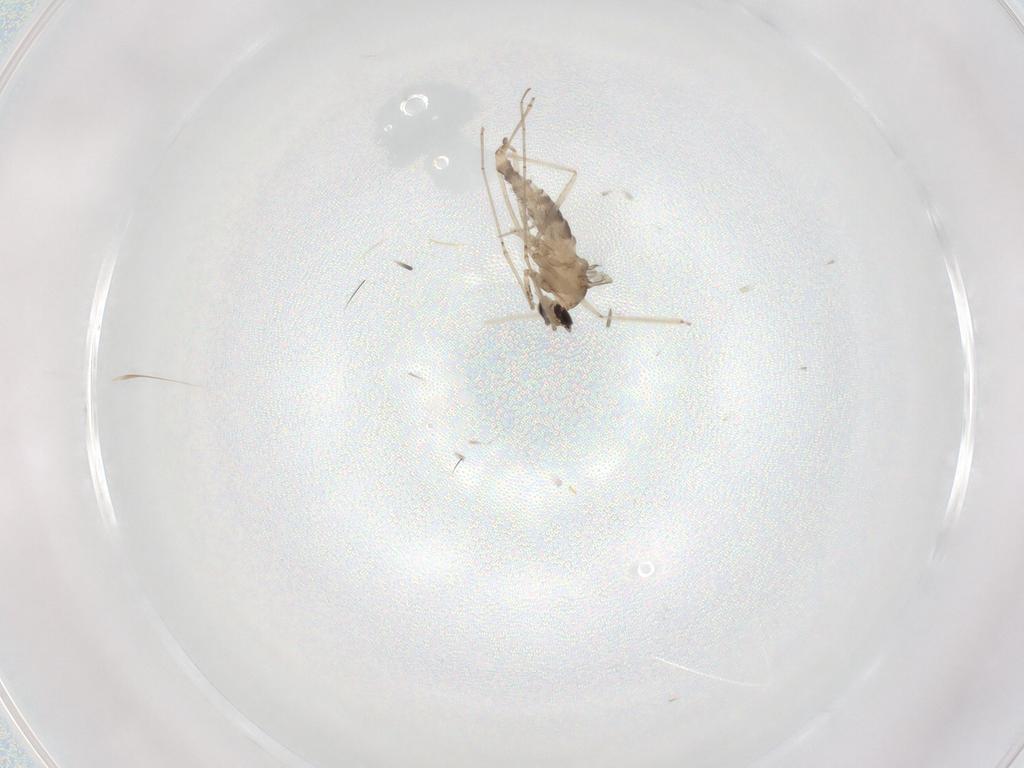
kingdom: Animalia
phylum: Arthropoda
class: Insecta
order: Diptera
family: Cecidomyiidae
